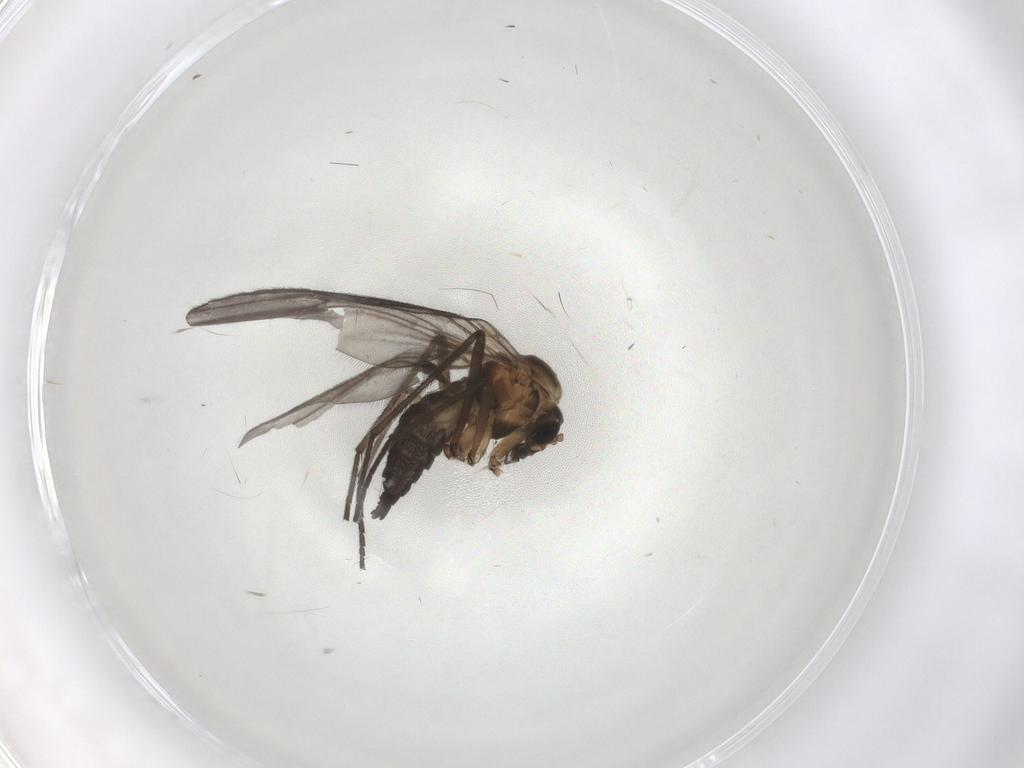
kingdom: Animalia
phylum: Arthropoda
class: Insecta
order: Diptera
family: Sciaridae
